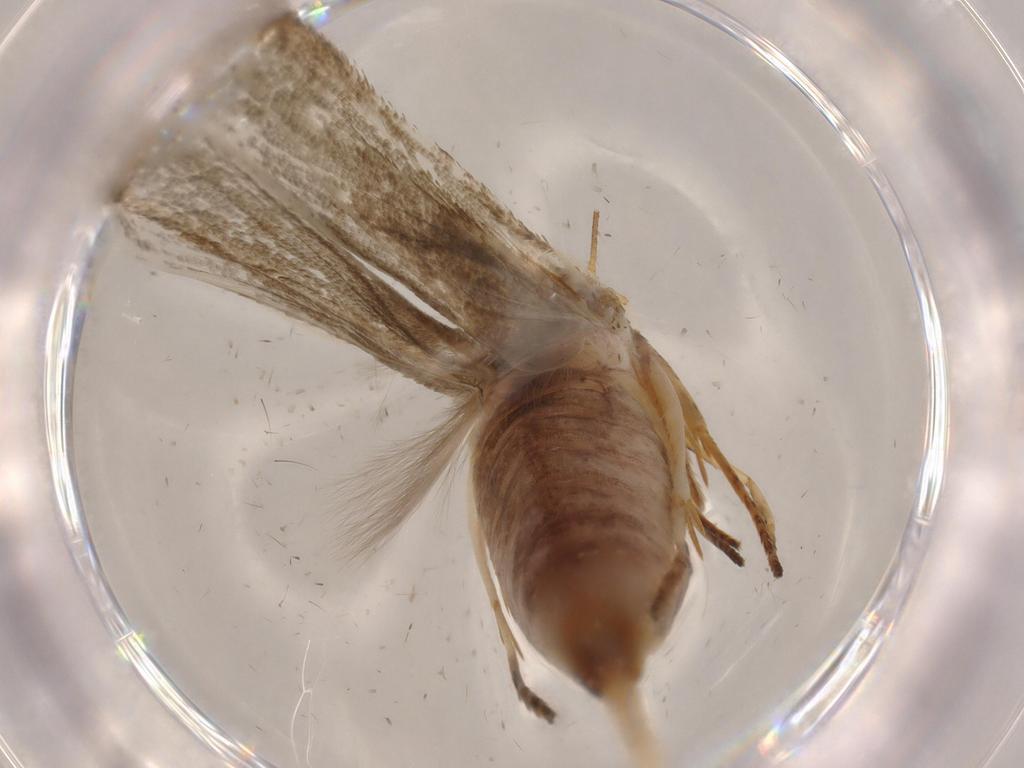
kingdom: Animalia
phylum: Arthropoda
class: Insecta
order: Lepidoptera
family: Blastobasidae
